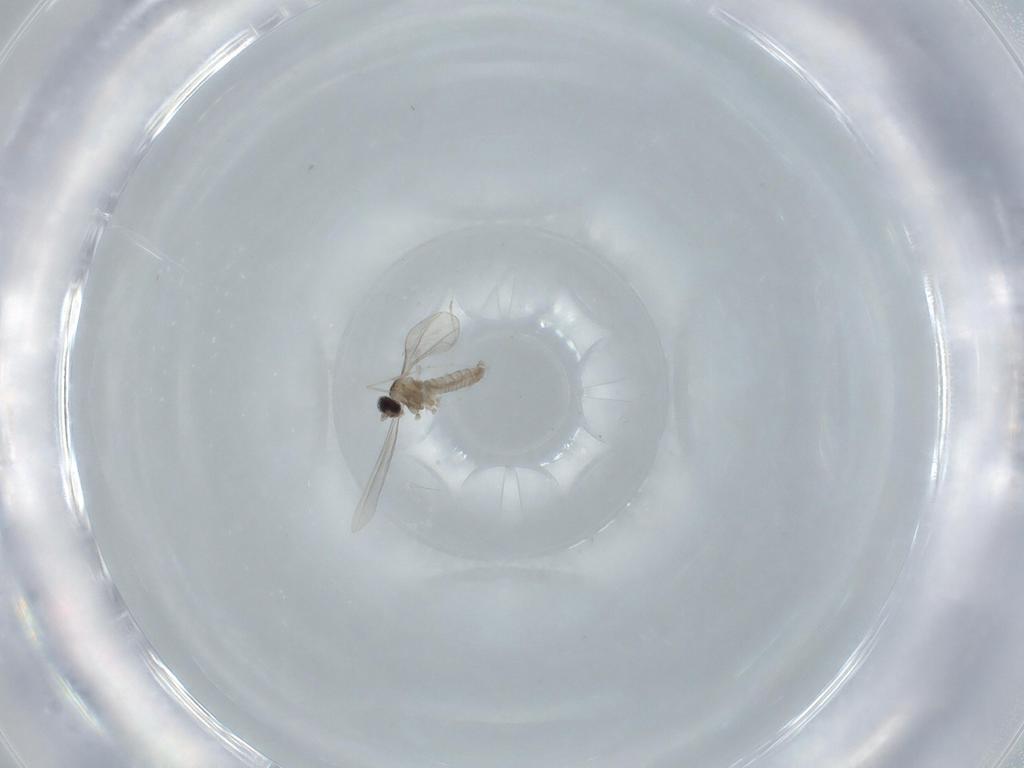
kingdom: Animalia
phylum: Arthropoda
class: Insecta
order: Diptera
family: Cecidomyiidae
